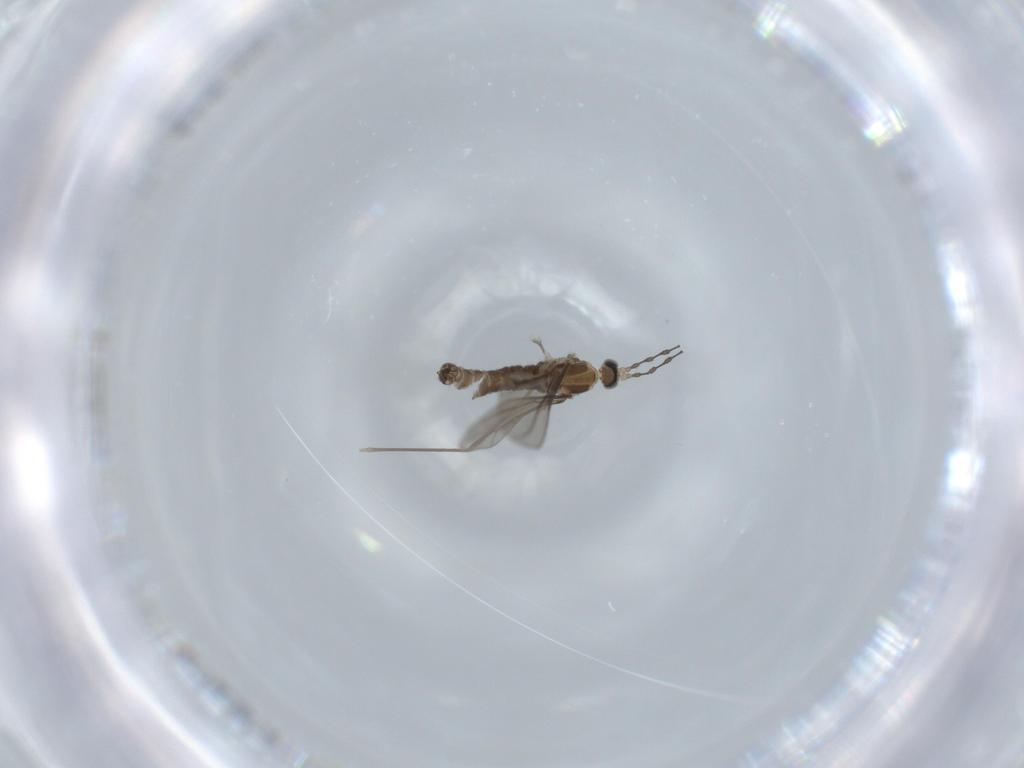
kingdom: Animalia
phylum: Arthropoda
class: Insecta
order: Diptera
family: Cecidomyiidae
